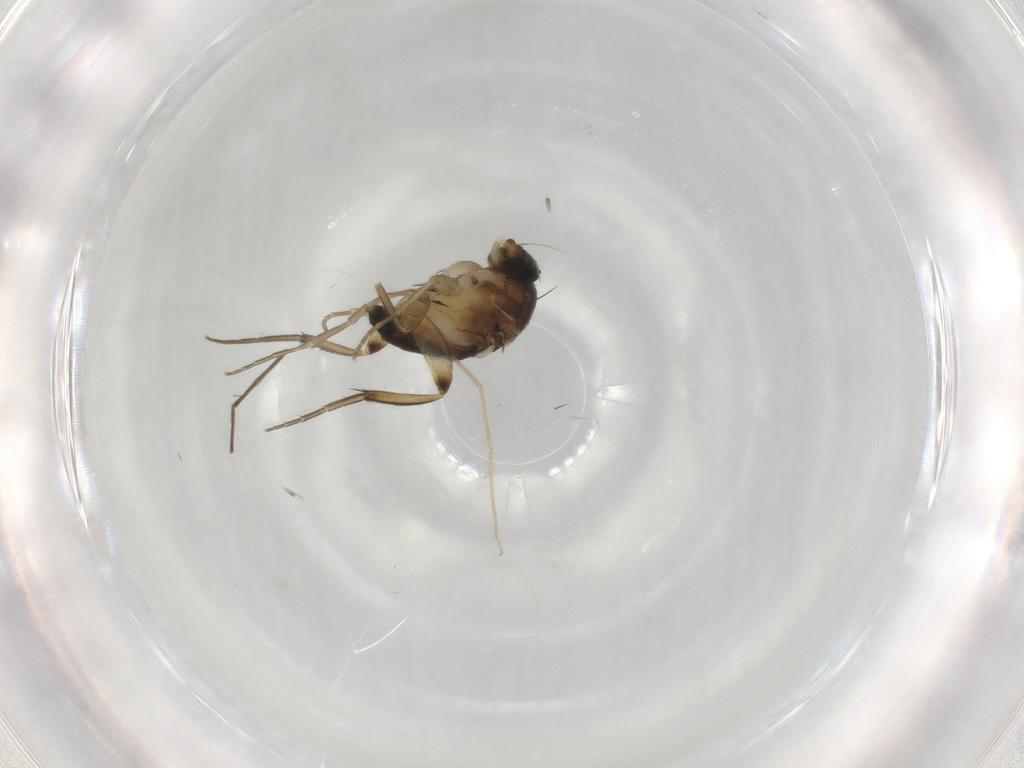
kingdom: Animalia
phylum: Arthropoda
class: Insecta
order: Diptera
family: Phoridae
